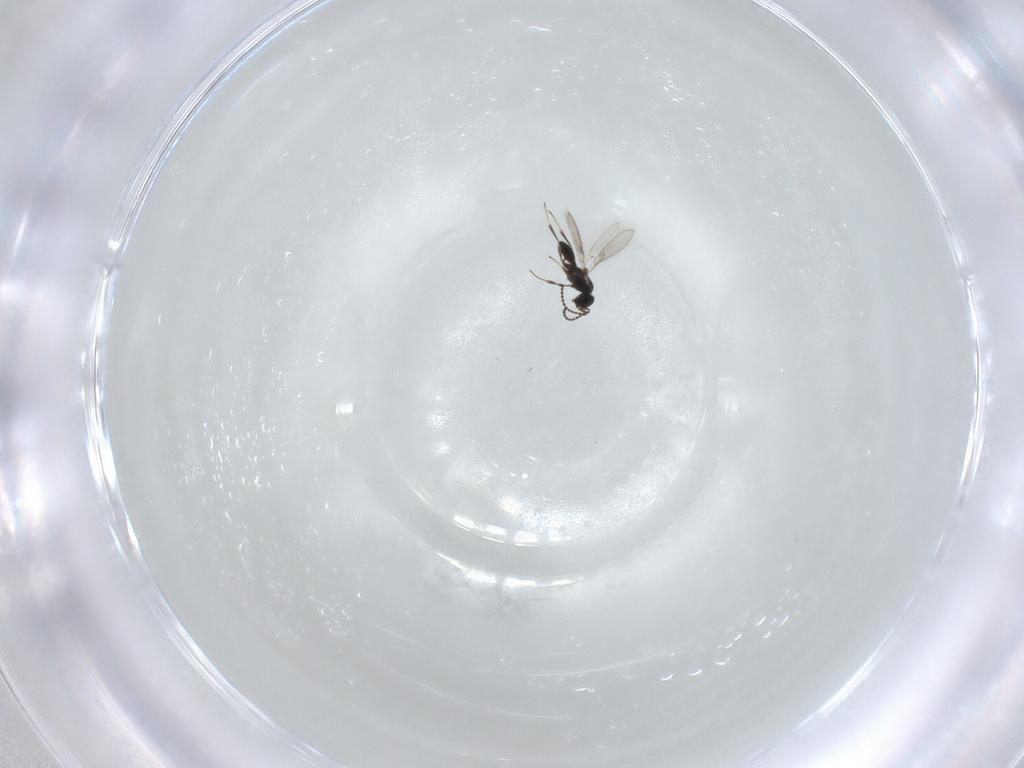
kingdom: Animalia
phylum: Arthropoda
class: Insecta
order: Hymenoptera
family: Scelionidae
